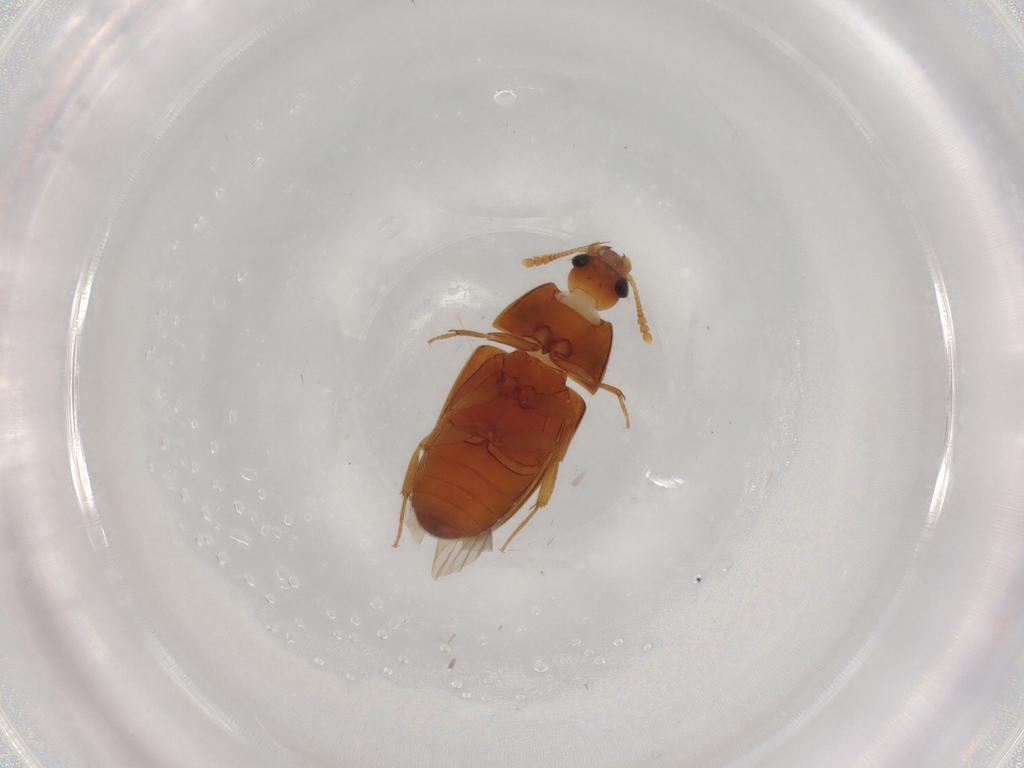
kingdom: Animalia
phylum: Arthropoda
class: Insecta
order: Coleoptera
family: Mycetophagidae
